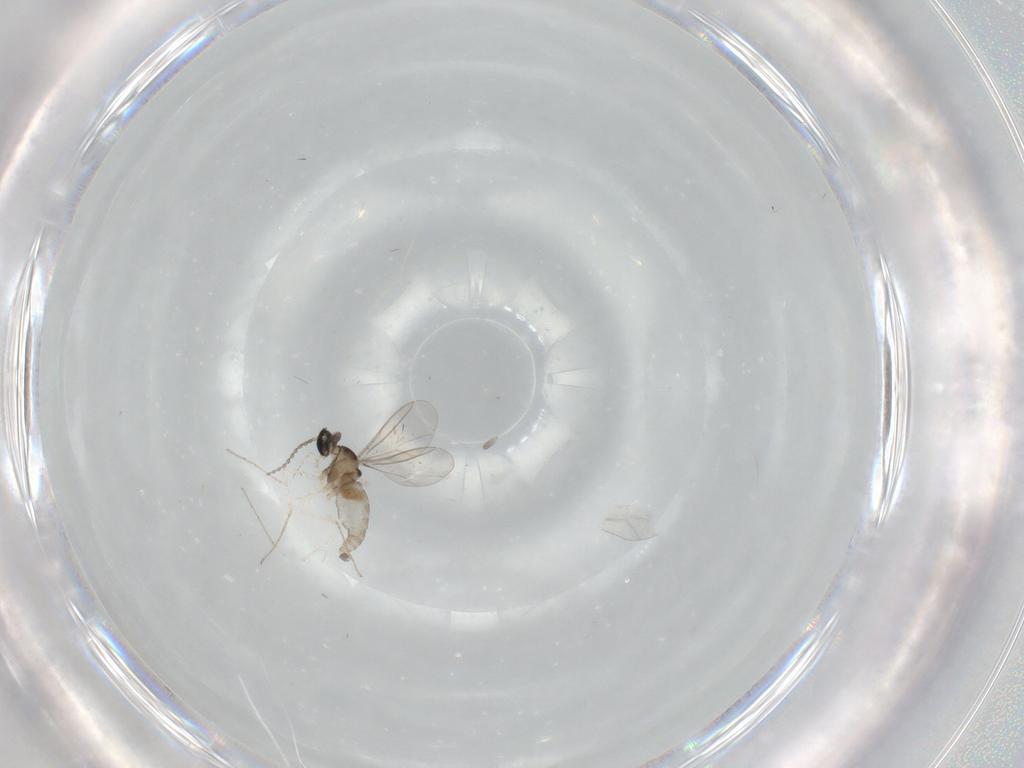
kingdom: Animalia
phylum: Arthropoda
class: Insecta
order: Diptera
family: Cecidomyiidae
